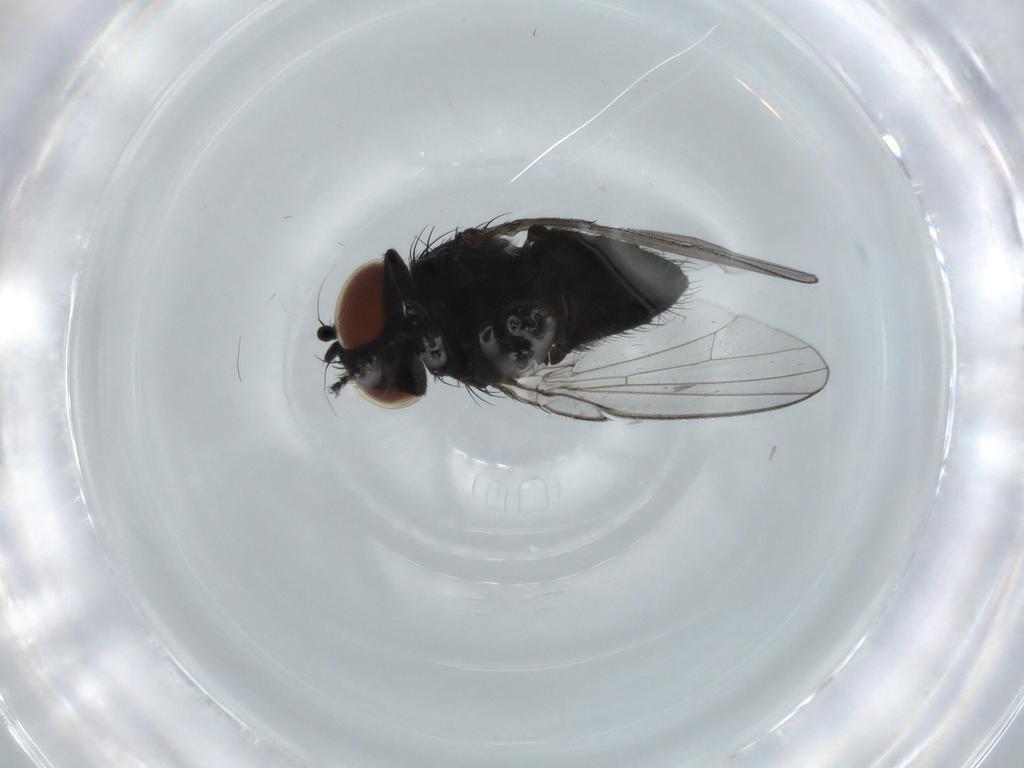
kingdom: Animalia
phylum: Arthropoda
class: Insecta
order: Diptera
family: Milichiidae
